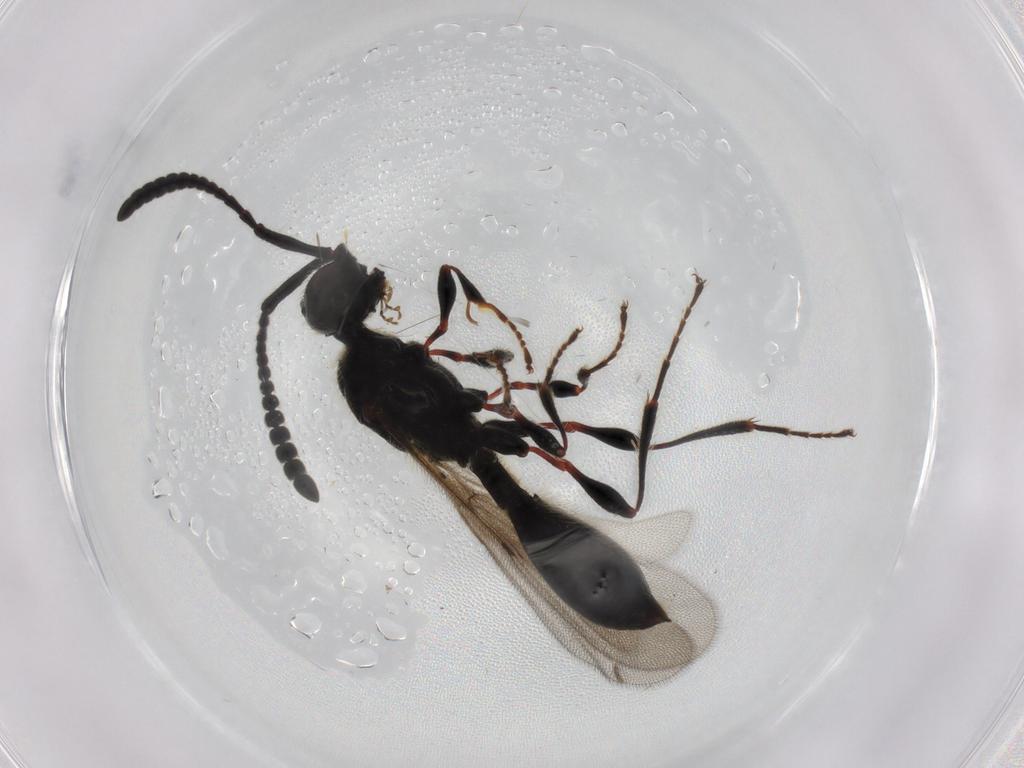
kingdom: Animalia
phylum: Arthropoda
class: Insecta
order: Hymenoptera
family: Diapriidae
